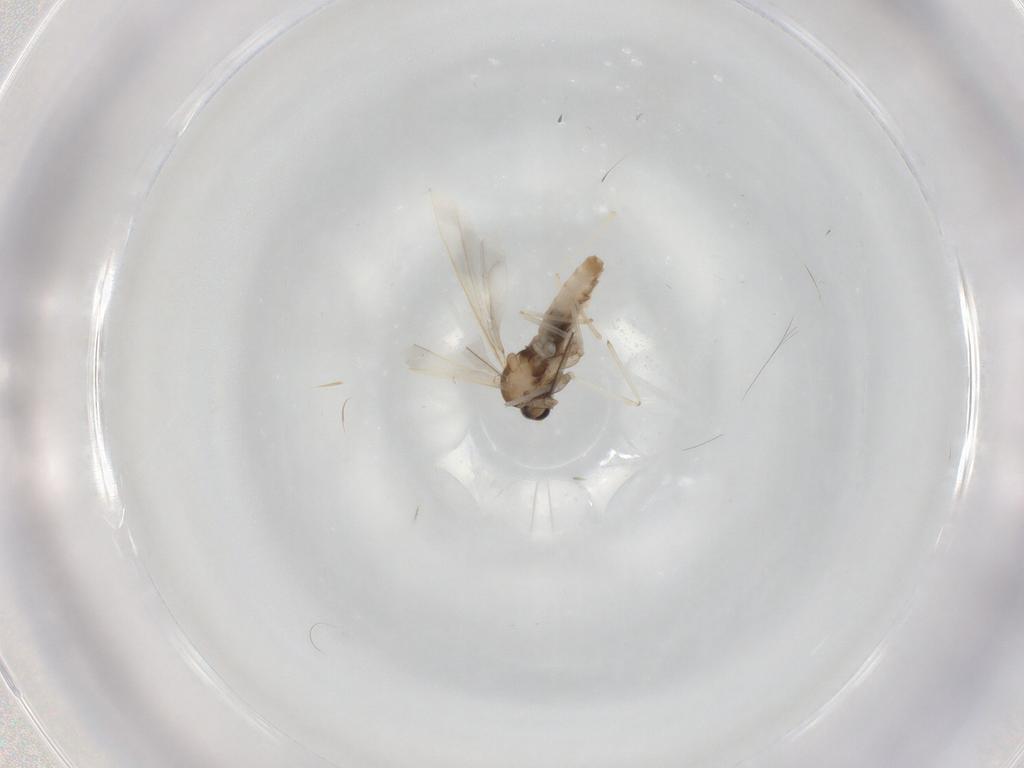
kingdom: Animalia
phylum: Arthropoda
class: Insecta
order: Diptera
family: Cecidomyiidae
